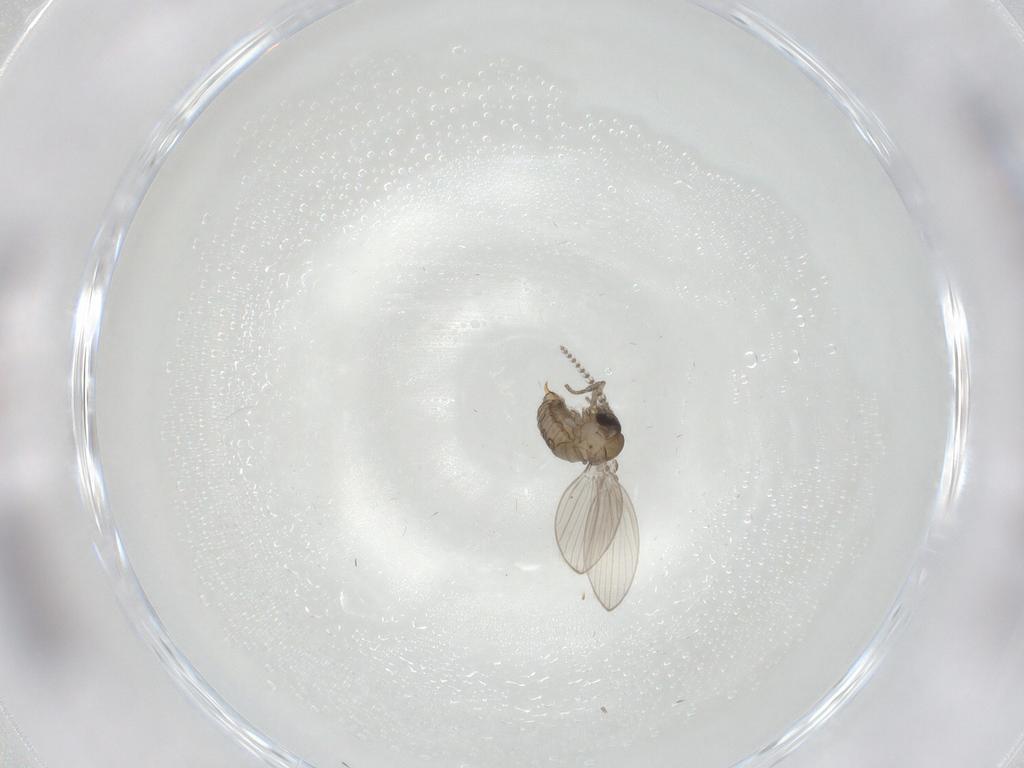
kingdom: Animalia
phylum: Arthropoda
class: Insecta
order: Diptera
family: Psychodidae
